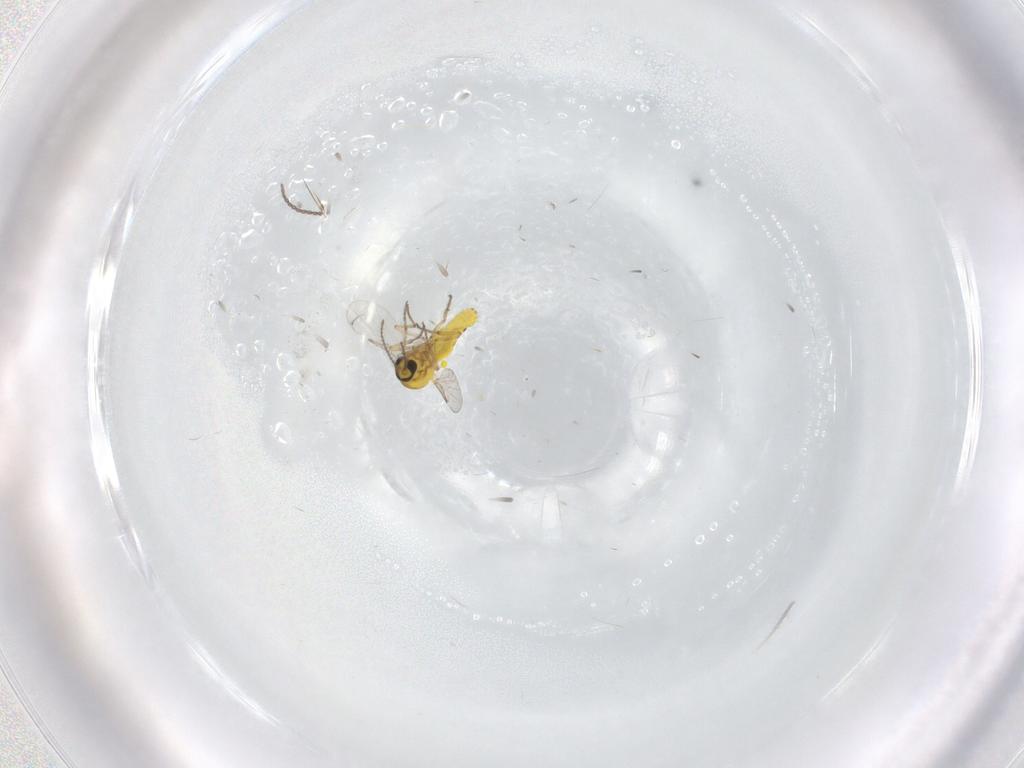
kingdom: Animalia
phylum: Arthropoda
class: Insecta
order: Diptera
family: Ceratopogonidae
